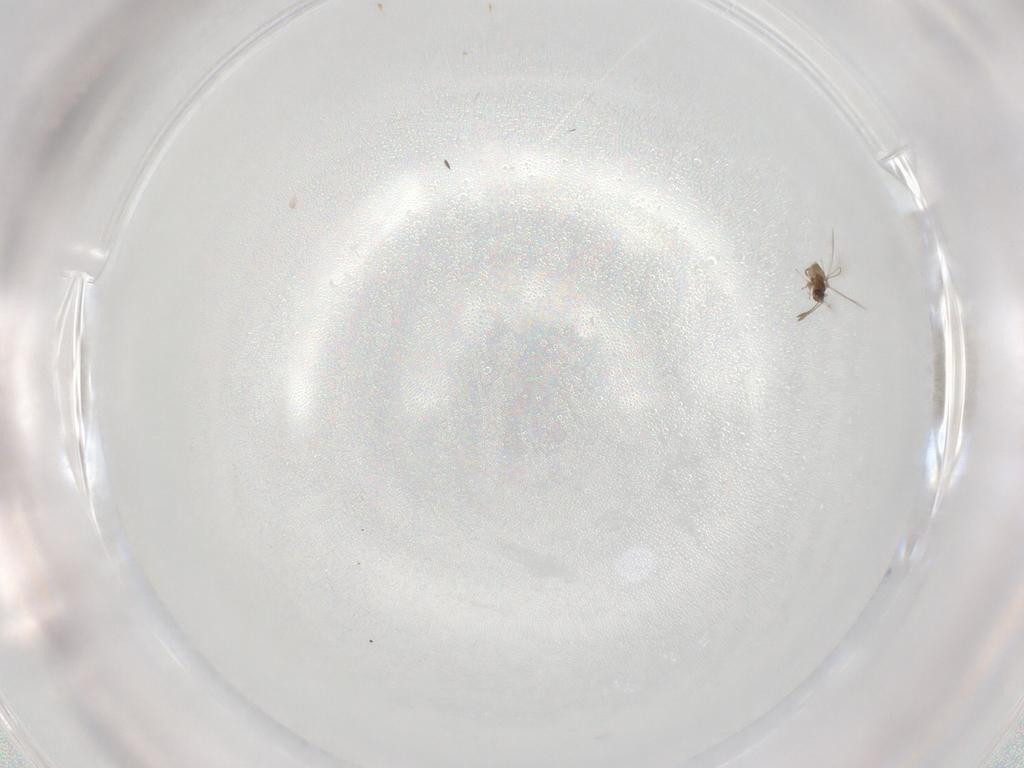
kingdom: Animalia
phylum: Arthropoda
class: Insecta
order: Hymenoptera
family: Mymaridae
